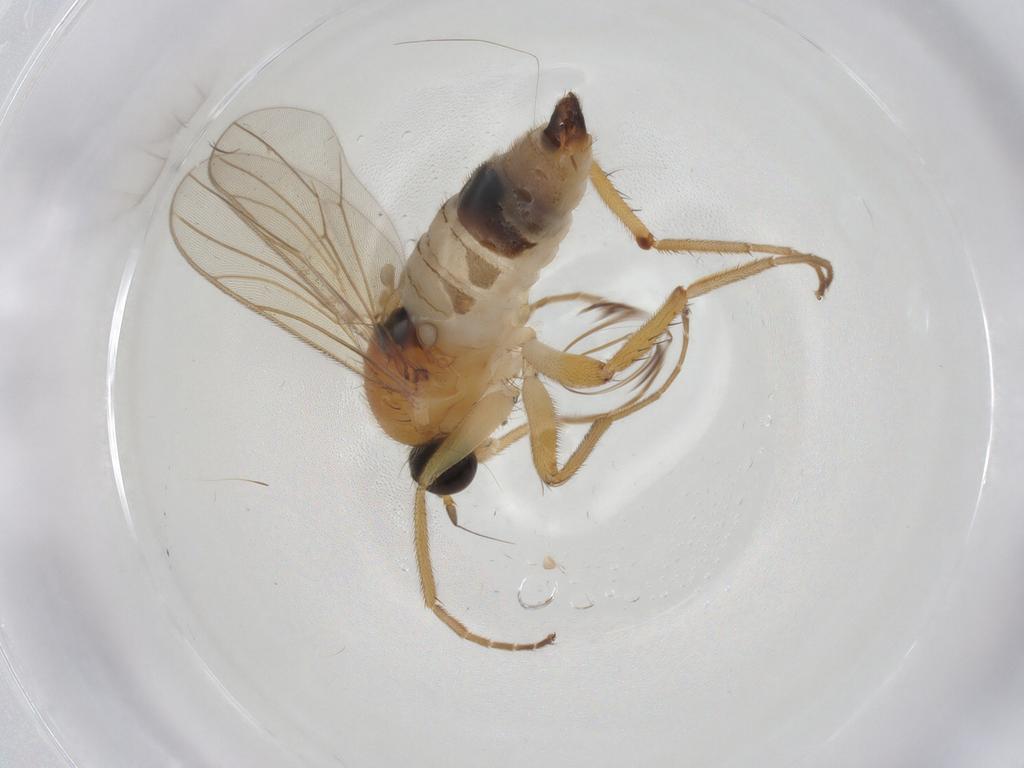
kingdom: Animalia
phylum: Arthropoda
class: Insecta
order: Diptera
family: Hybotidae
